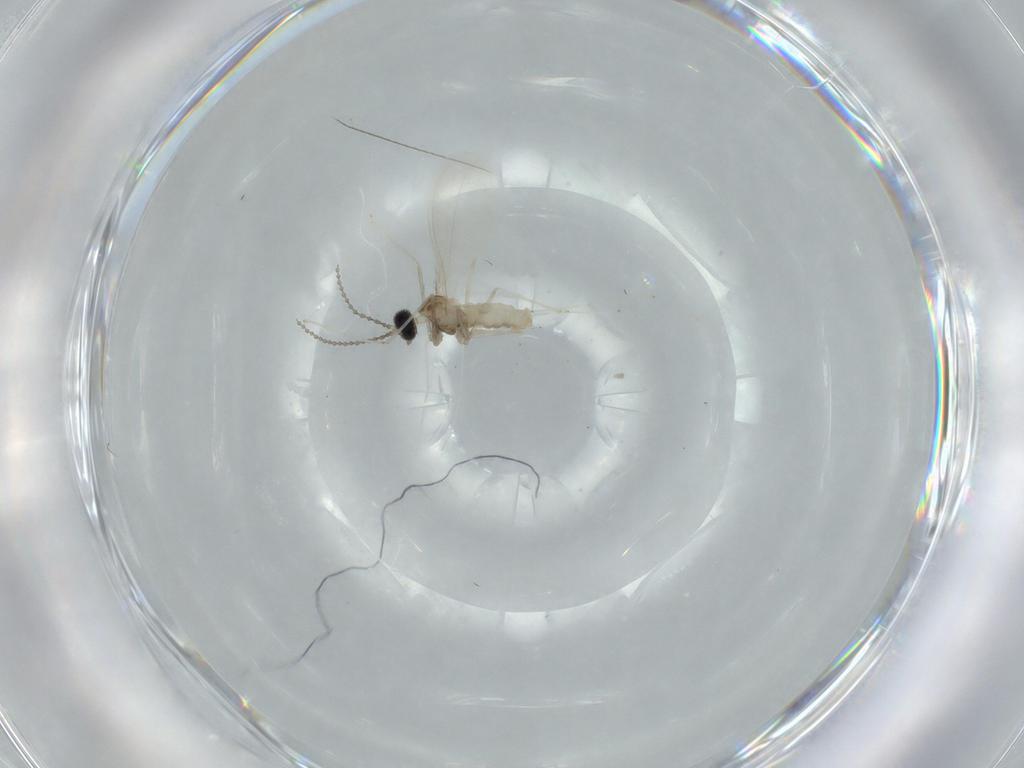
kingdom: Animalia
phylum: Arthropoda
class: Insecta
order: Diptera
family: Cecidomyiidae
